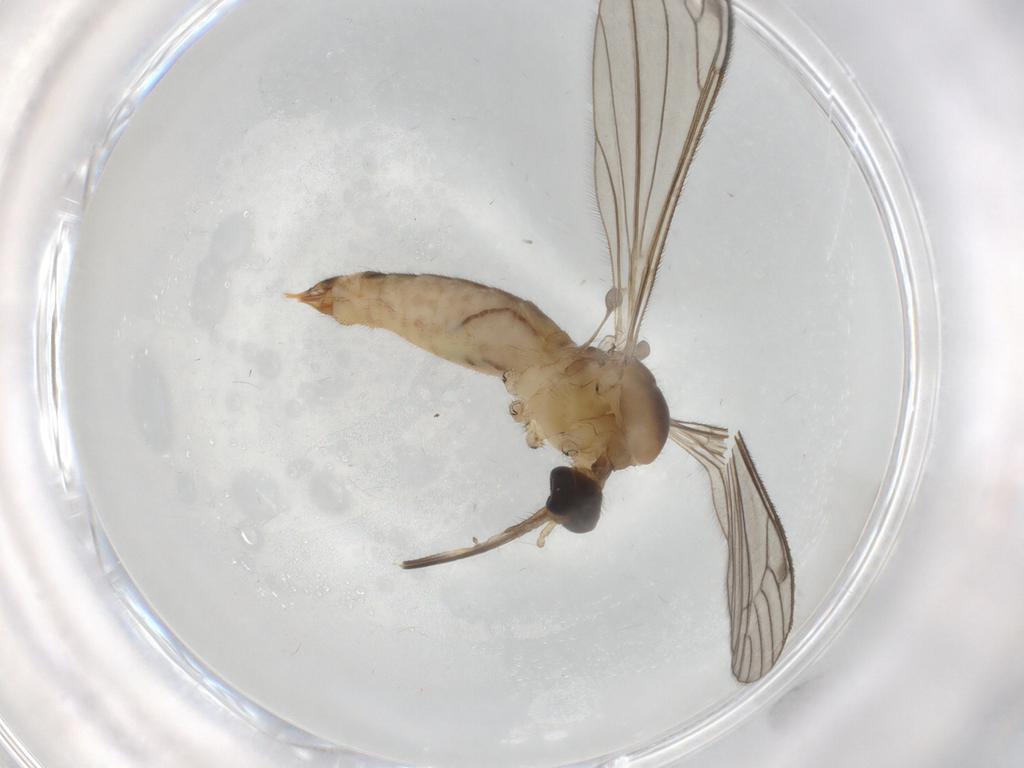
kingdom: Animalia
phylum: Arthropoda
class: Insecta
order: Diptera
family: Limoniidae
